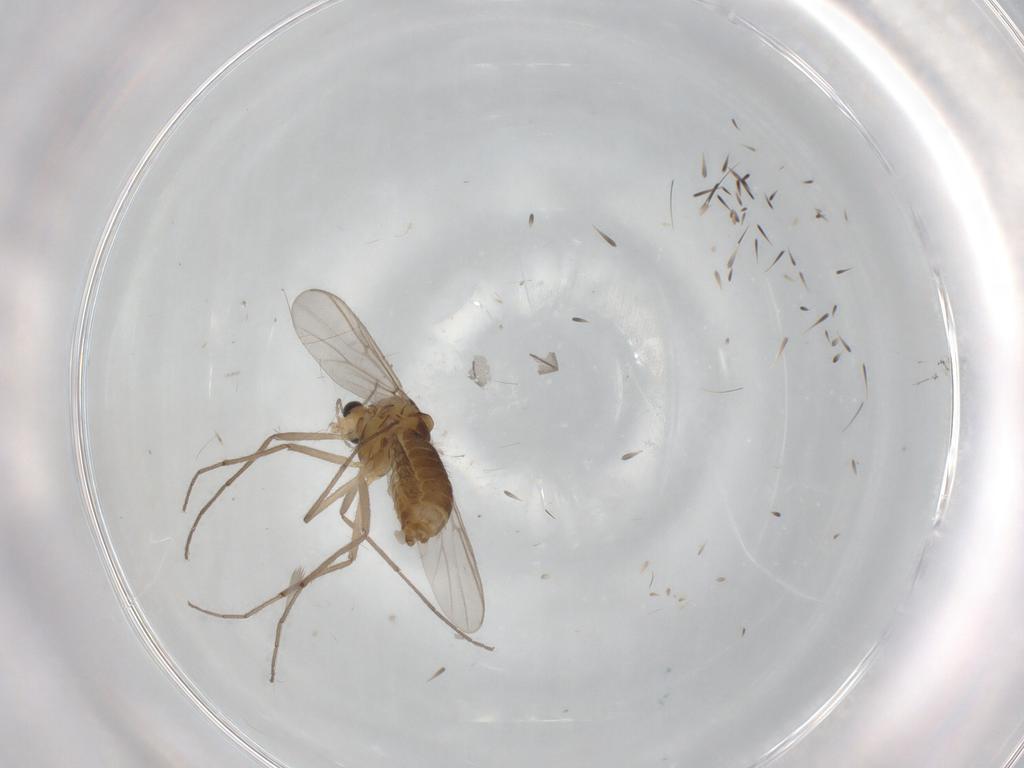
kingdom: Animalia
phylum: Arthropoda
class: Insecta
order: Diptera
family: Chironomidae
